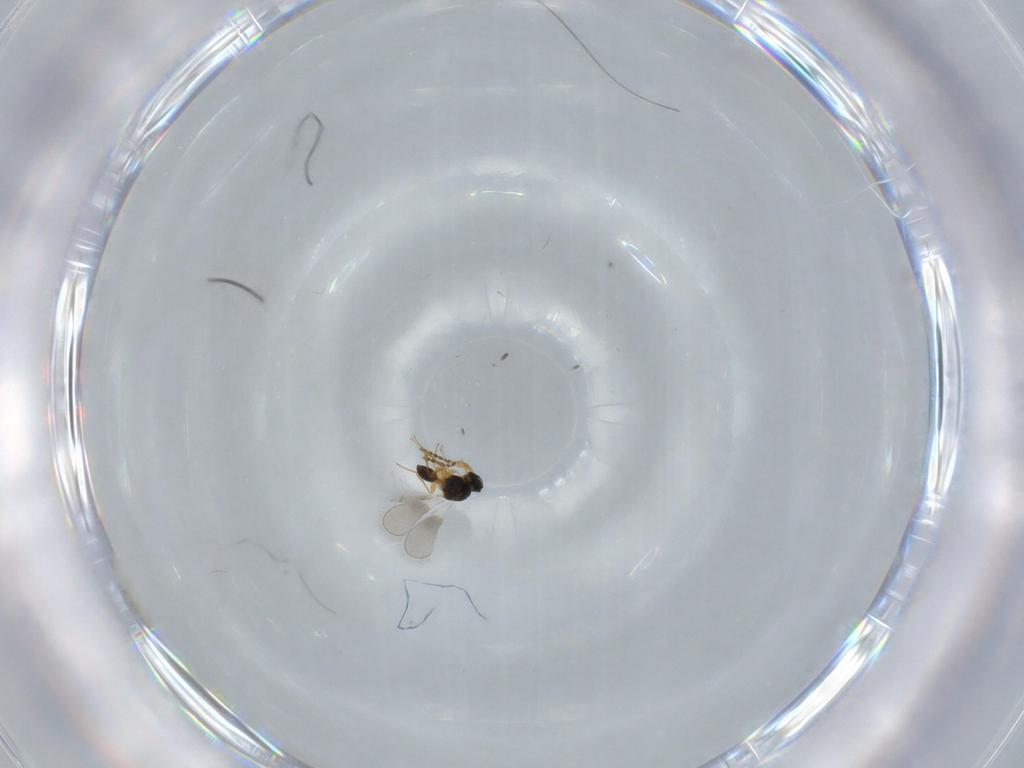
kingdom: Animalia
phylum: Arthropoda
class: Insecta
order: Hymenoptera
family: Platygastridae
